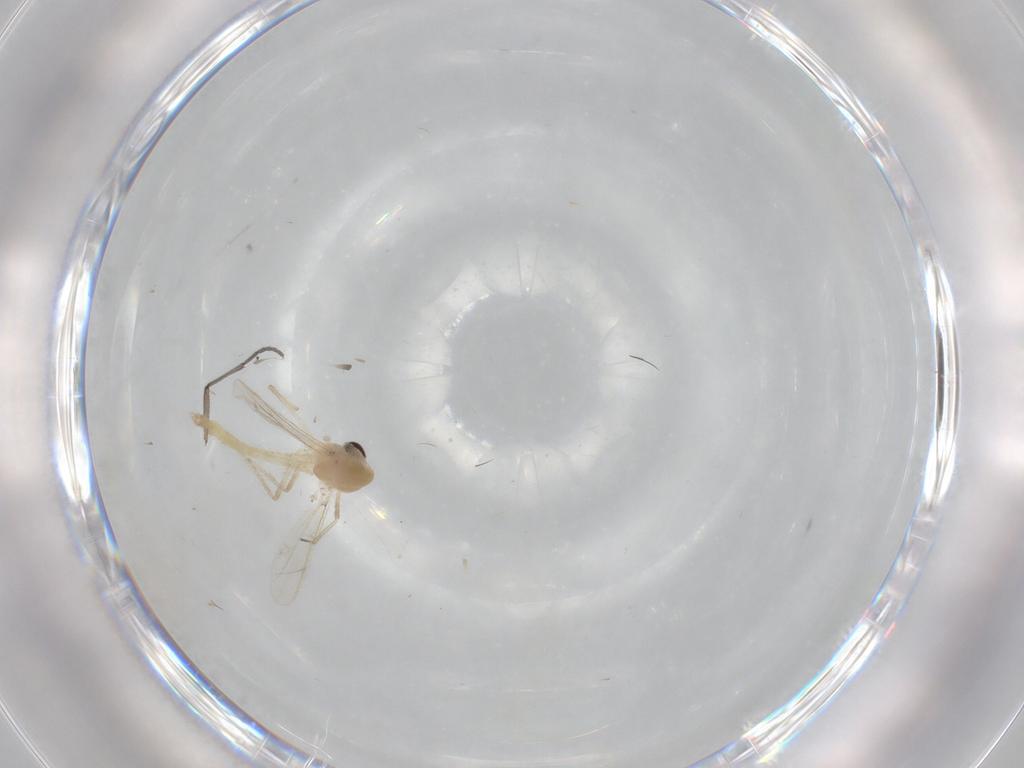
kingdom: Animalia
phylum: Arthropoda
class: Insecta
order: Diptera
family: Chironomidae
